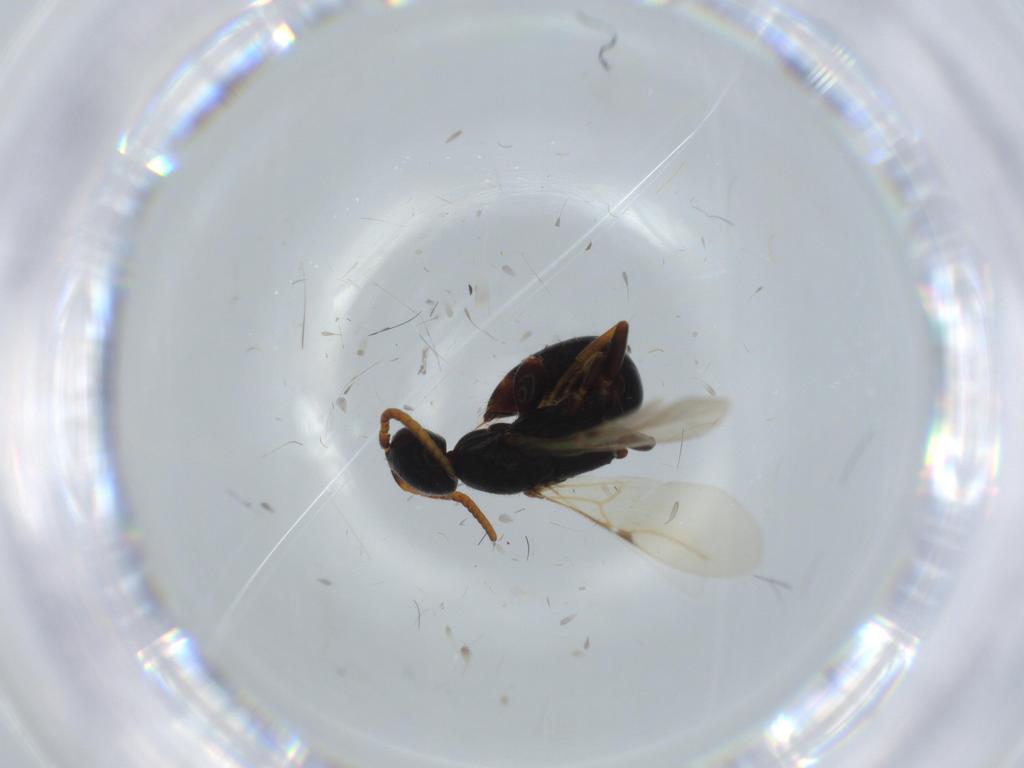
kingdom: Animalia
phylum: Arthropoda
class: Insecta
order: Hymenoptera
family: Bethylidae
